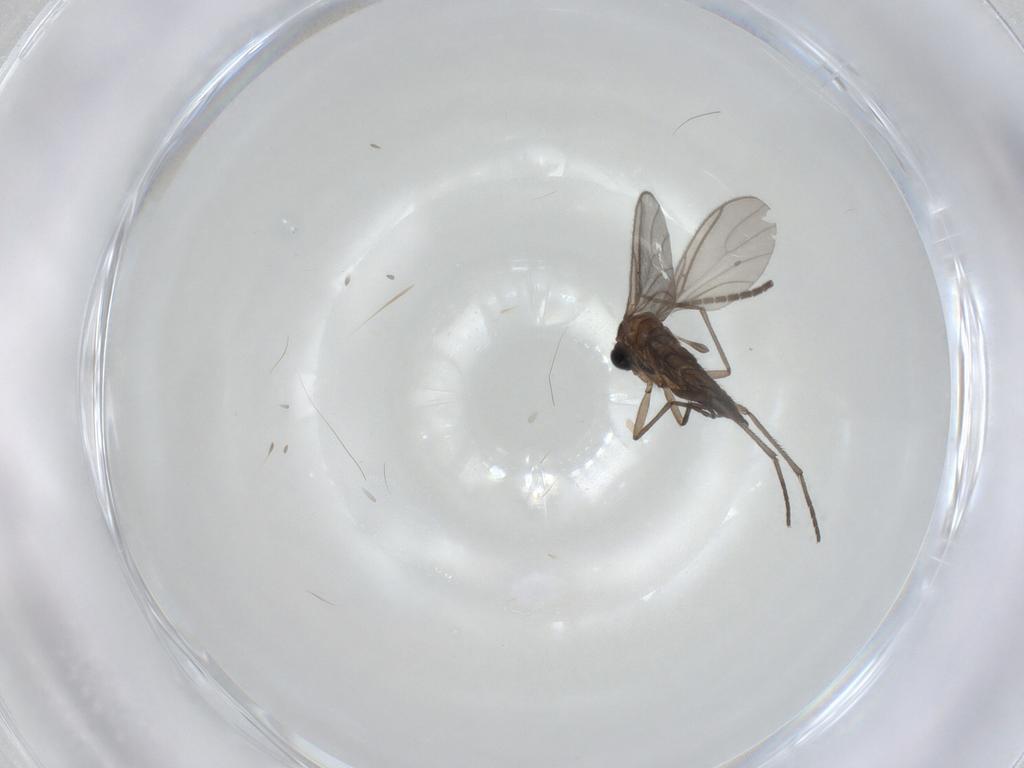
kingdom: Animalia
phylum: Arthropoda
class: Insecta
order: Diptera
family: Sciaridae
